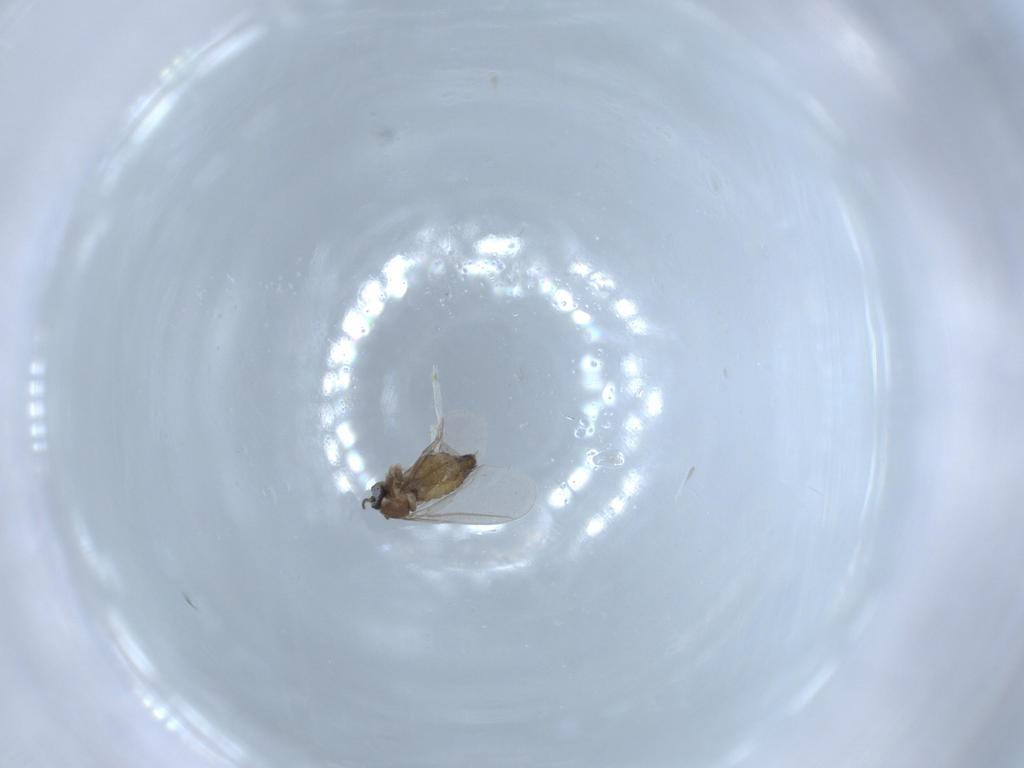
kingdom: Animalia
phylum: Arthropoda
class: Insecta
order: Diptera
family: Cecidomyiidae
